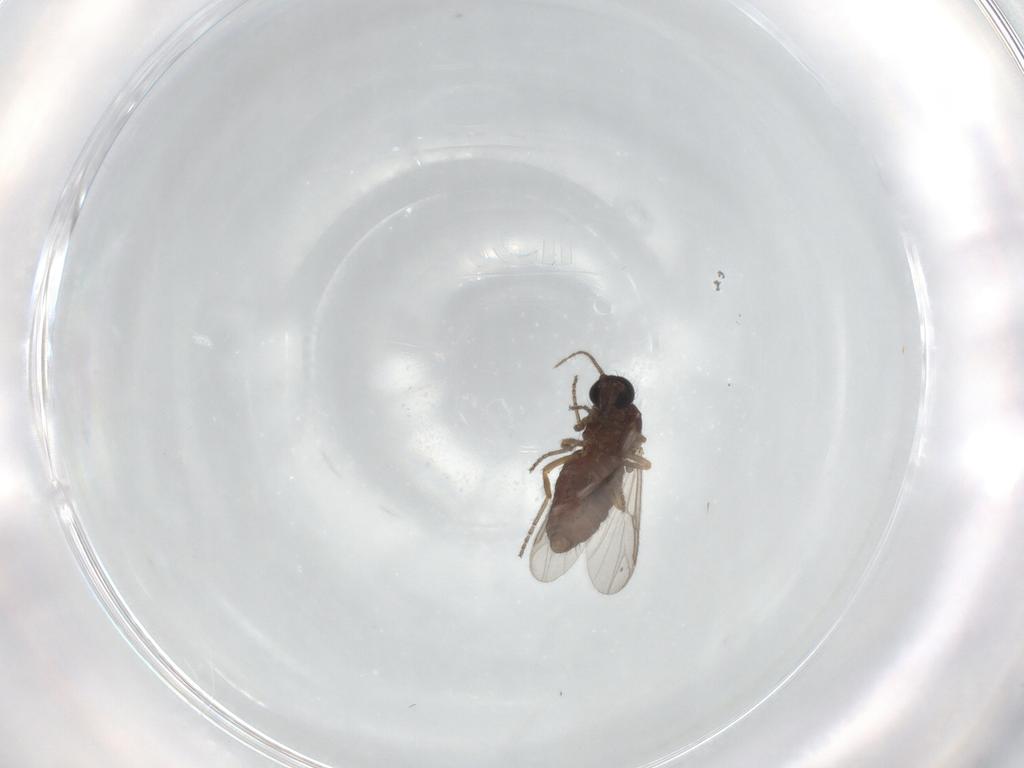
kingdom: Animalia
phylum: Arthropoda
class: Insecta
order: Diptera
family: Ceratopogonidae
